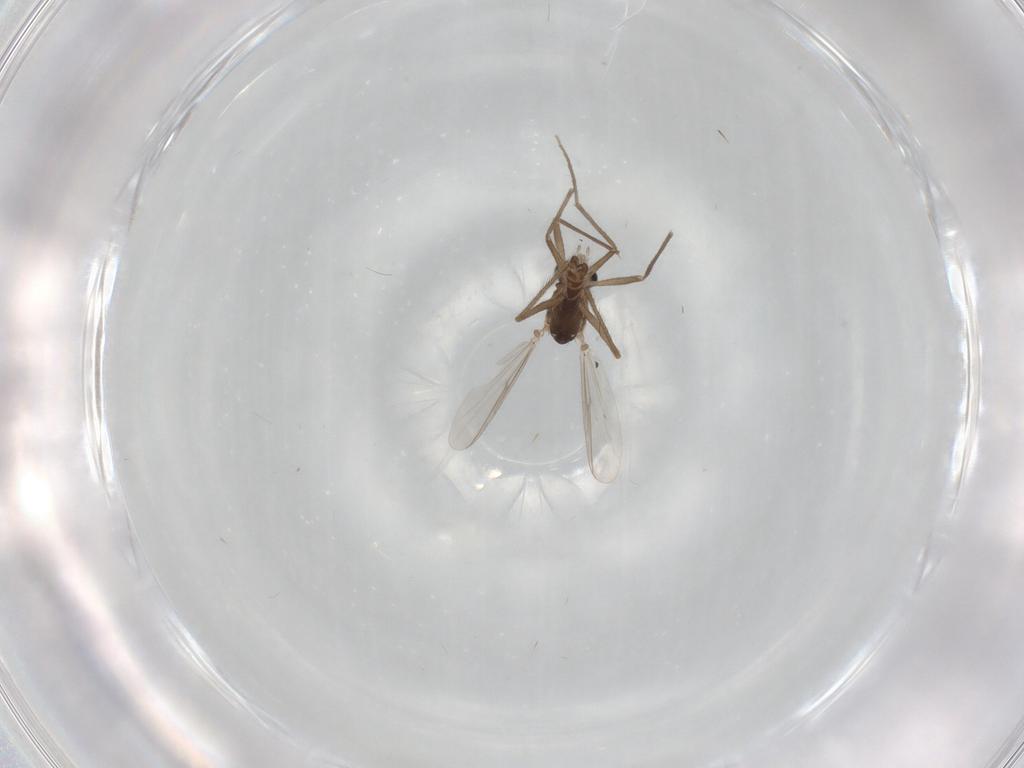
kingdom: Animalia
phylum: Arthropoda
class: Insecta
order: Diptera
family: Chironomidae
